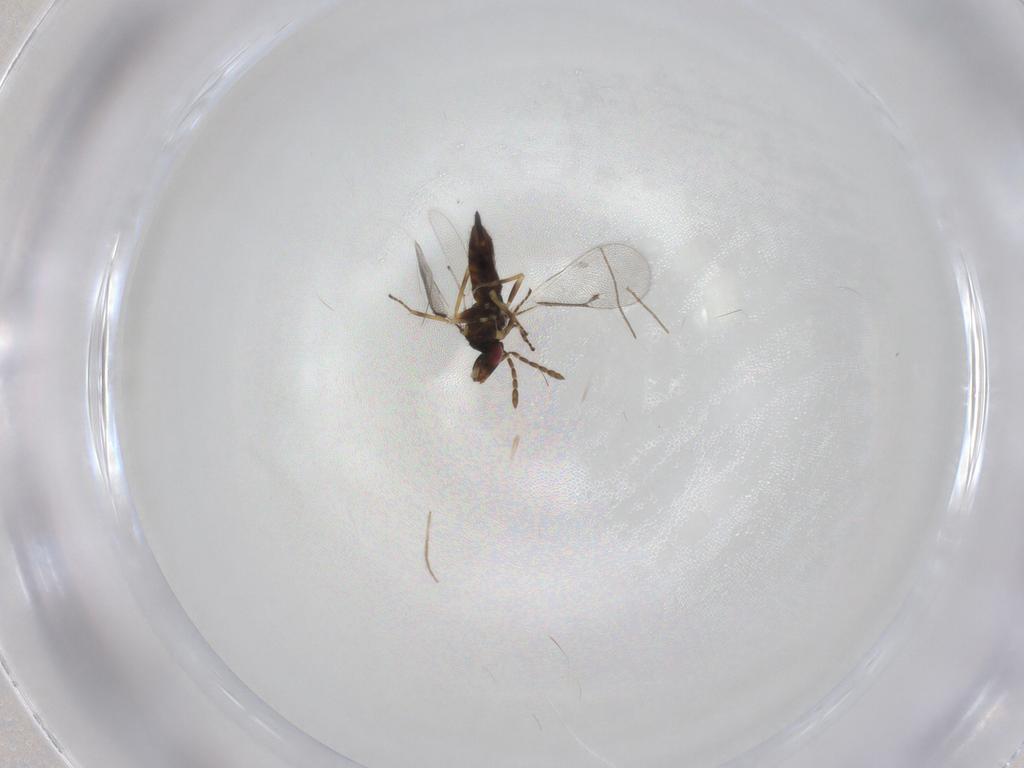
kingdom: Animalia
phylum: Arthropoda
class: Insecta
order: Hymenoptera
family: Eulophidae
